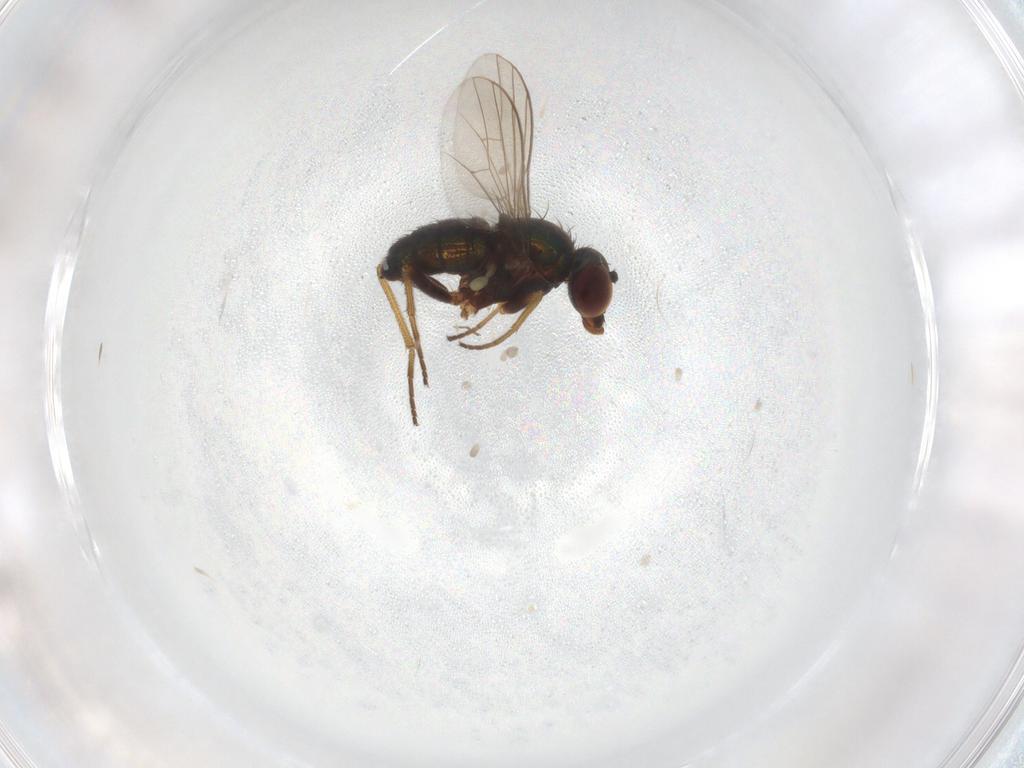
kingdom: Animalia
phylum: Arthropoda
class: Insecta
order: Diptera
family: Dolichopodidae
